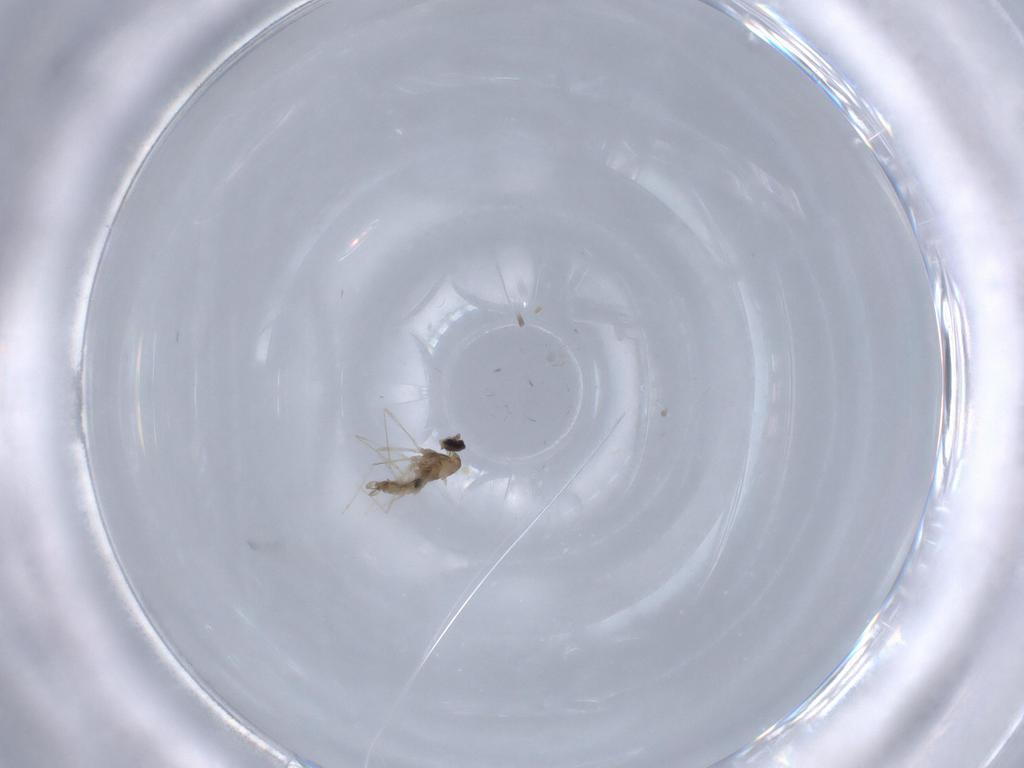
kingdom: Animalia
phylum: Arthropoda
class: Insecta
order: Diptera
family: Cecidomyiidae
